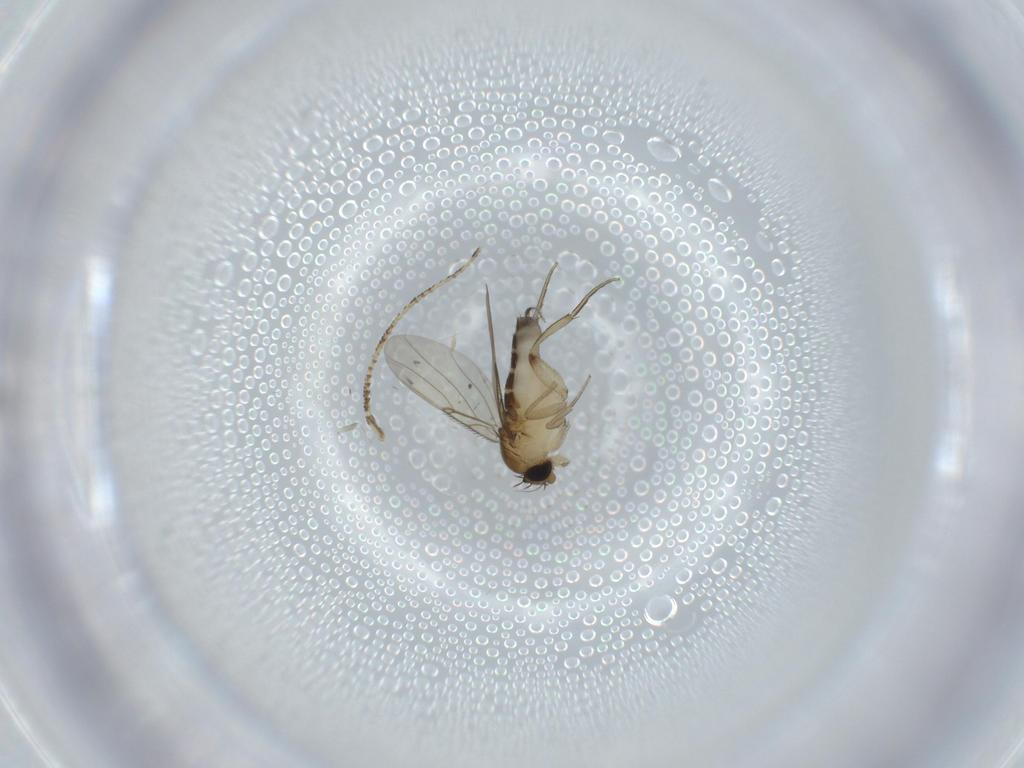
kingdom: Animalia
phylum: Arthropoda
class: Insecta
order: Diptera
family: Phoridae
